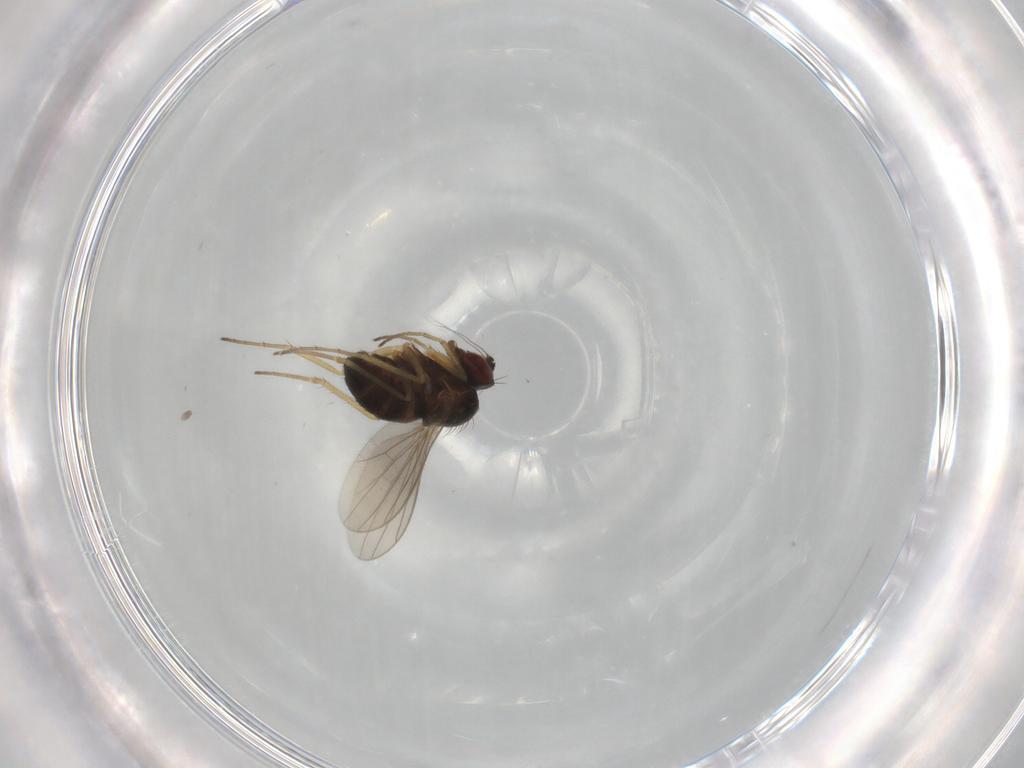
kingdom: Animalia
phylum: Arthropoda
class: Insecta
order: Diptera
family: Dolichopodidae
